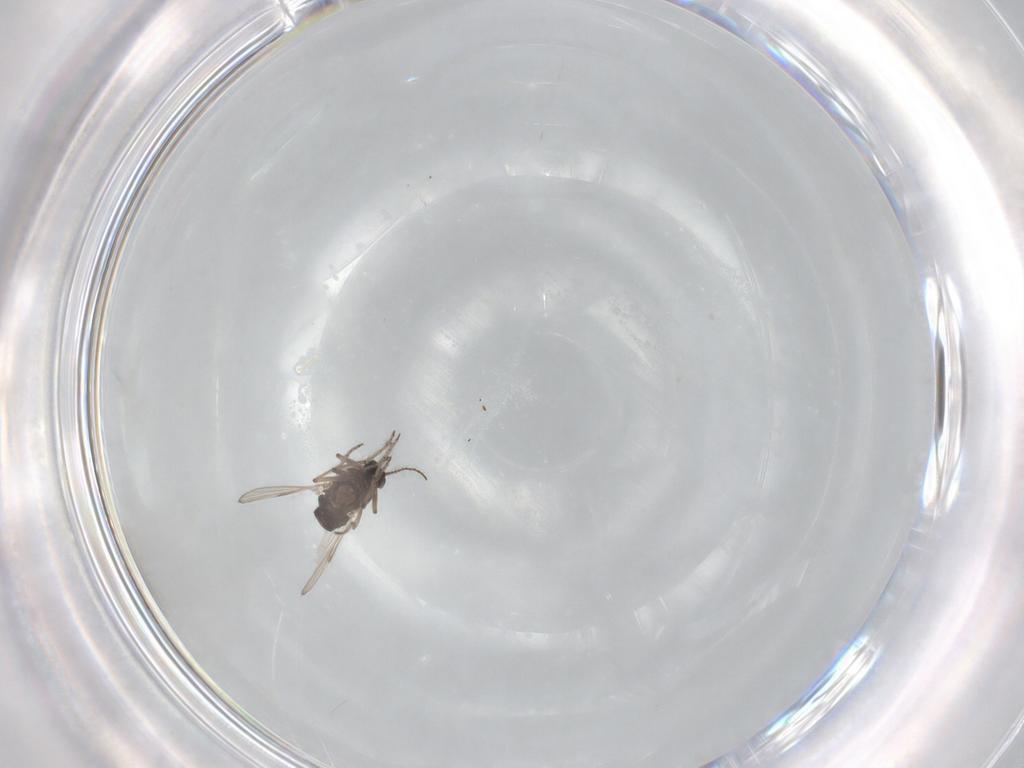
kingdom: Animalia
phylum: Arthropoda
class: Insecta
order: Diptera
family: Ceratopogonidae
